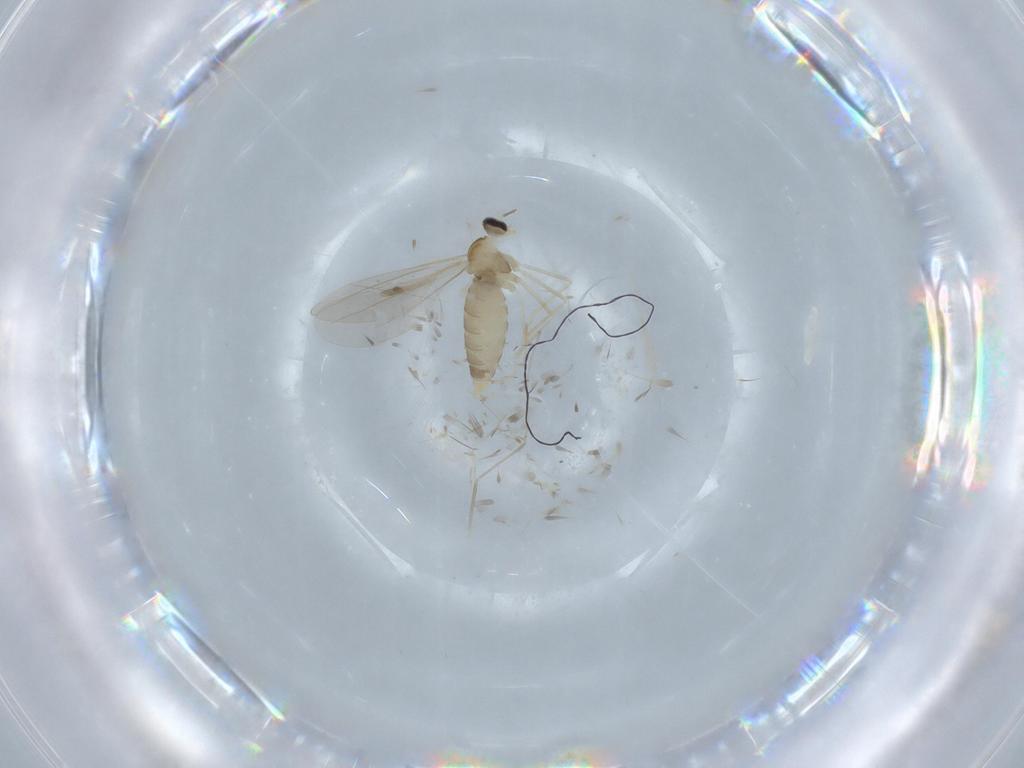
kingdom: Animalia
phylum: Arthropoda
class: Insecta
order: Diptera
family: Cecidomyiidae
